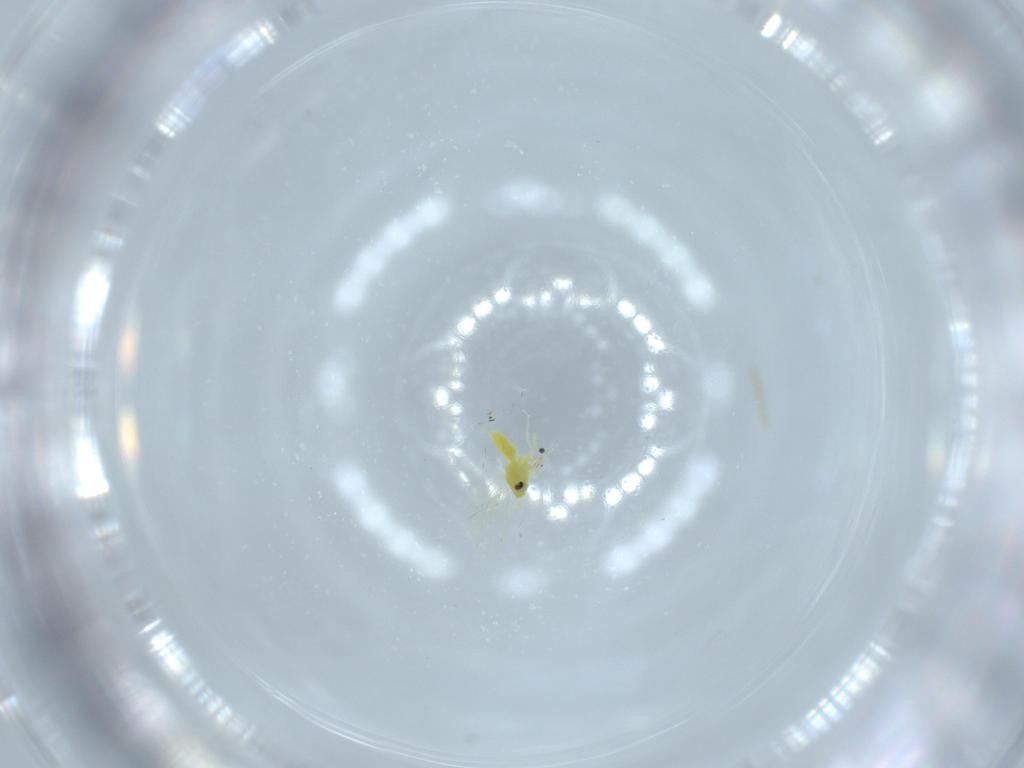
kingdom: Animalia
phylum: Arthropoda
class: Insecta
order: Hemiptera
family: Aleyrodidae
